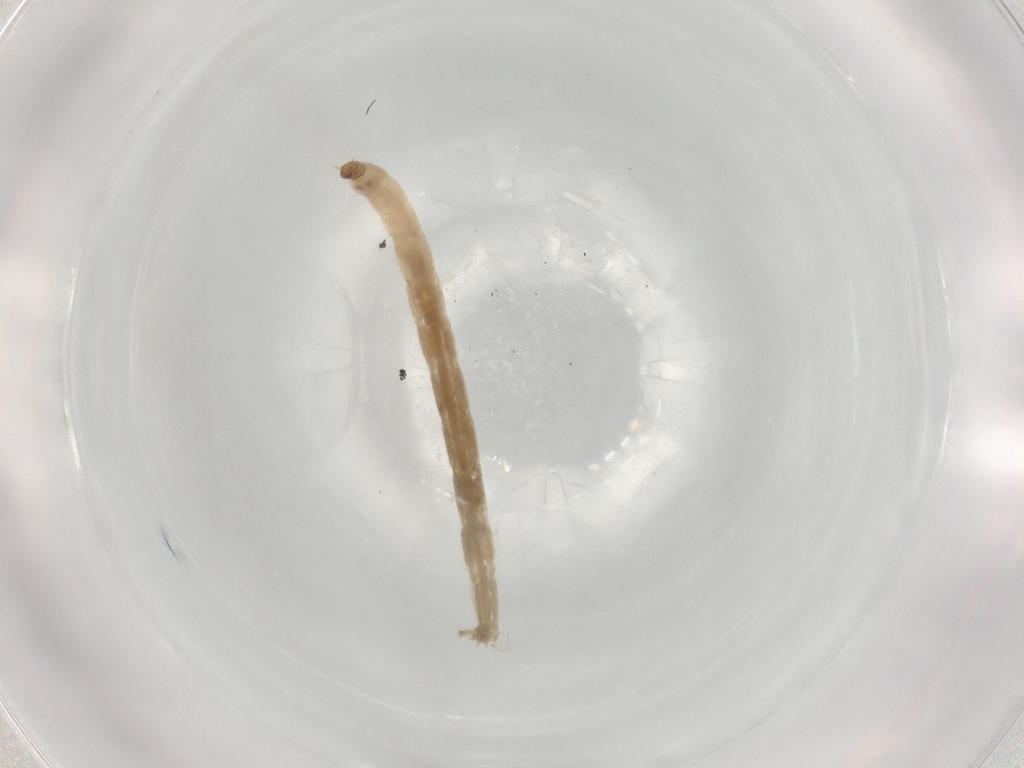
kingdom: Animalia
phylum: Arthropoda
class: Insecta
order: Diptera
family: Chironomidae
